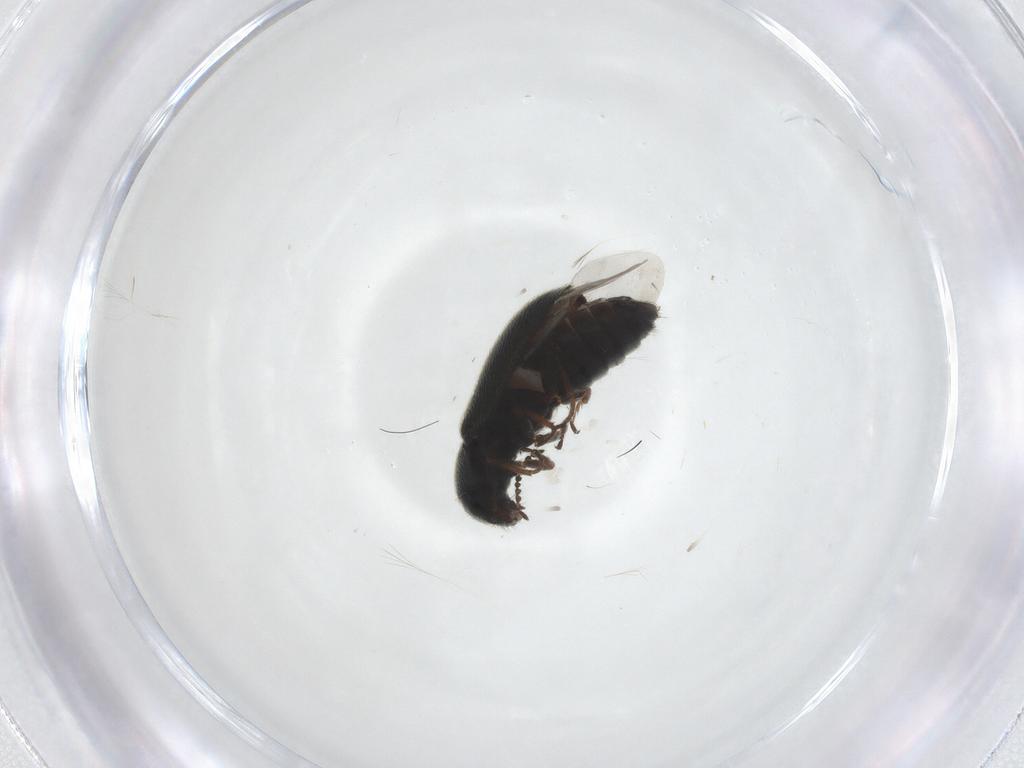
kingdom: Animalia
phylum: Arthropoda
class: Insecta
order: Coleoptera
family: Melyridae
